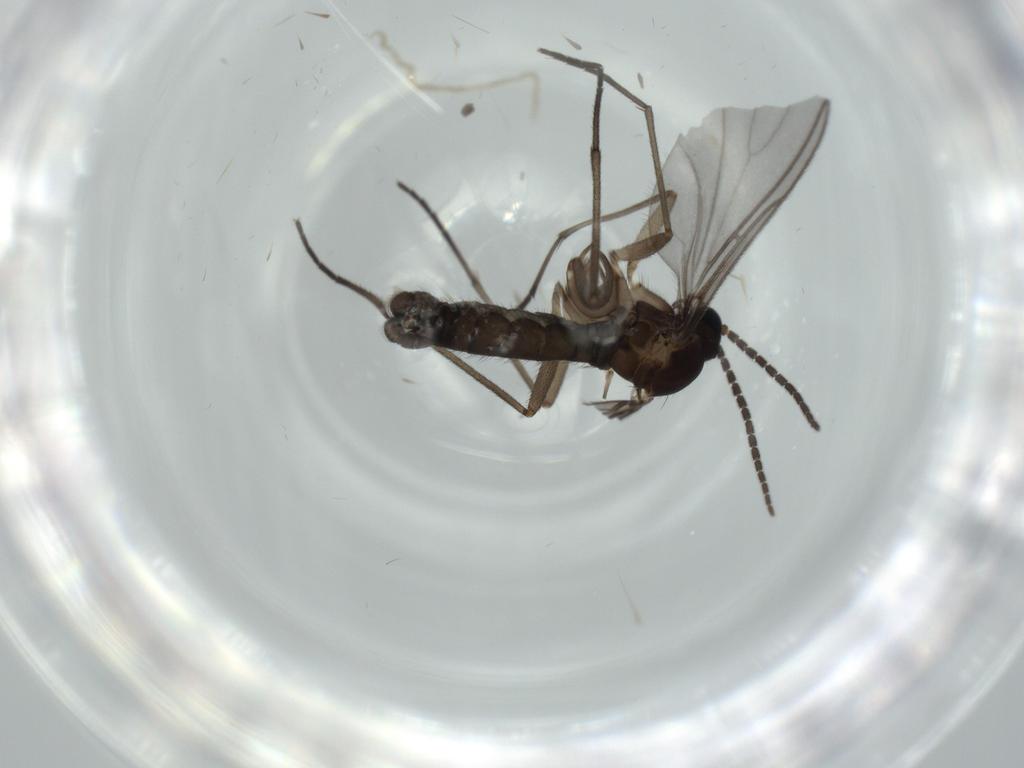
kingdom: Animalia
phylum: Arthropoda
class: Insecta
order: Diptera
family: Sciaridae
